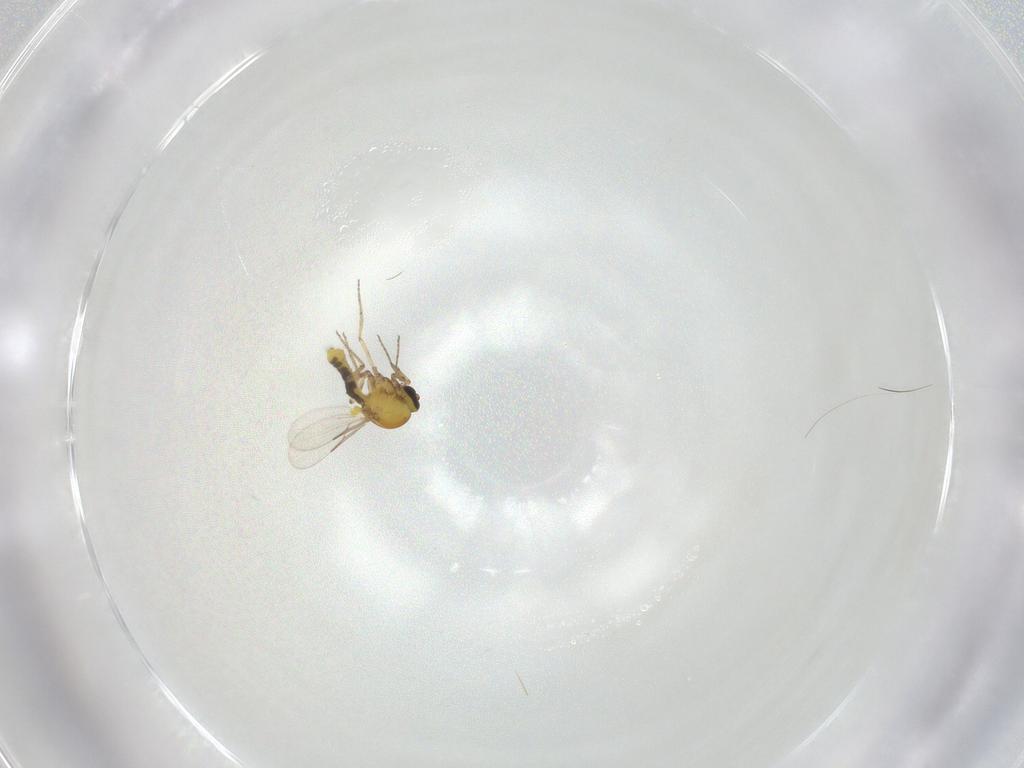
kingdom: Animalia
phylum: Arthropoda
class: Insecta
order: Diptera
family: Ceratopogonidae
